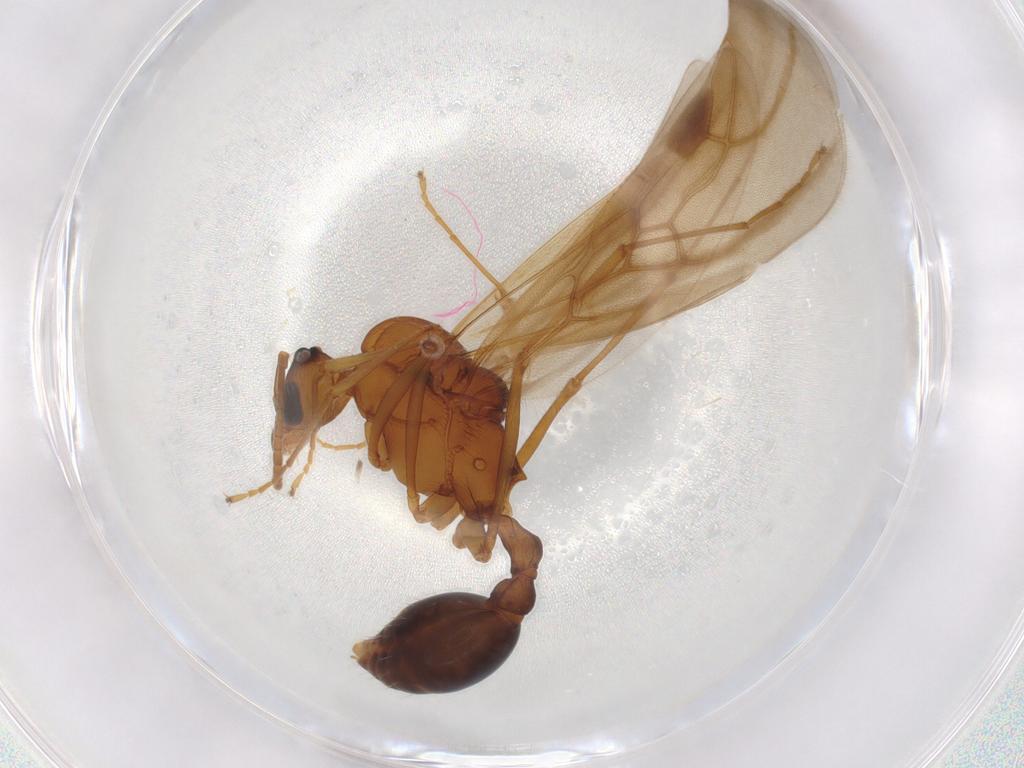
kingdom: Animalia
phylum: Arthropoda
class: Insecta
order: Hymenoptera
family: Formicidae
